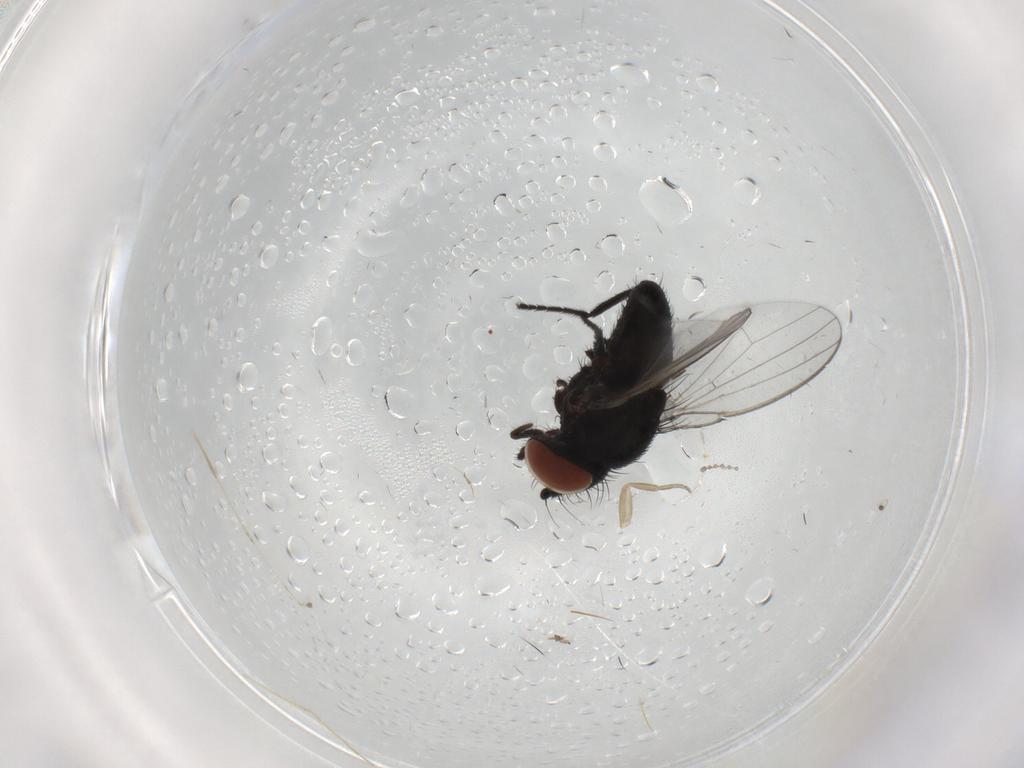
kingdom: Animalia
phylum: Arthropoda
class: Insecta
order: Diptera
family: Milichiidae
